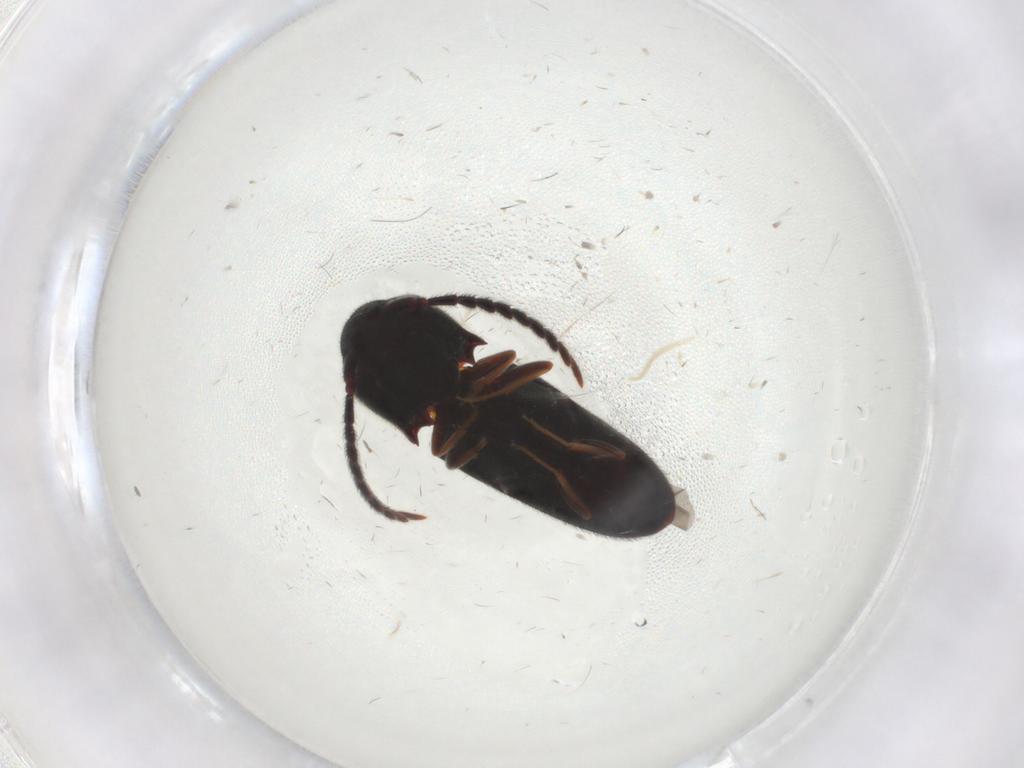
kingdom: Animalia
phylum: Arthropoda
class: Insecta
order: Coleoptera
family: Eucnemidae
